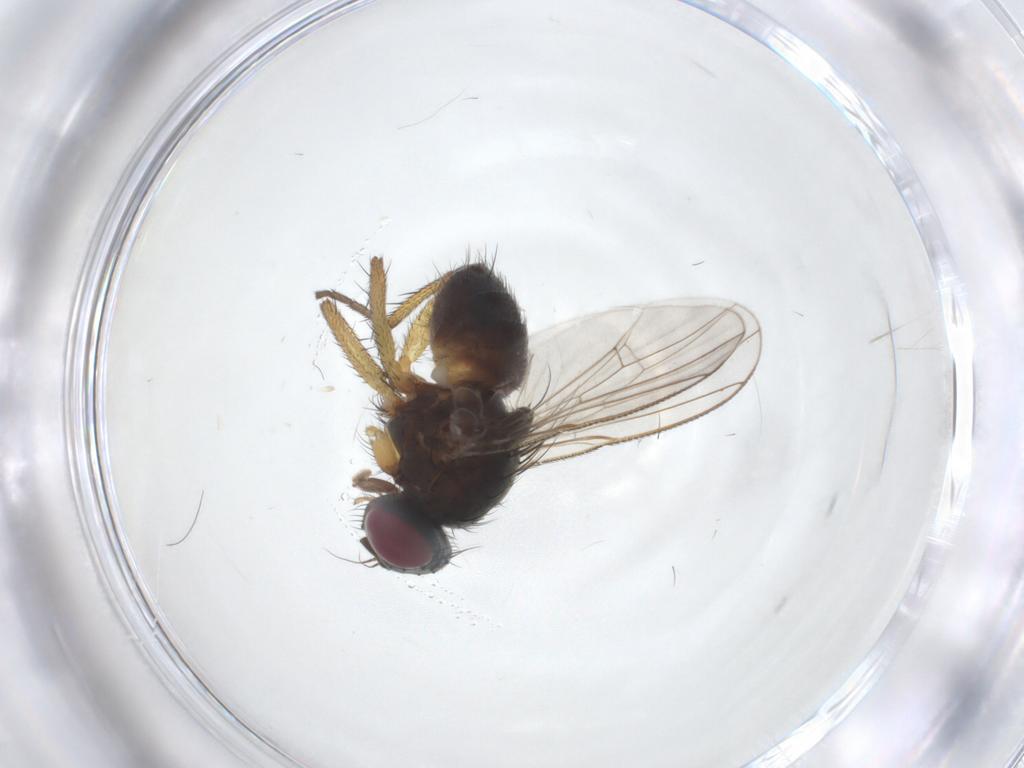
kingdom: Animalia
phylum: Arthropoda
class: Insecta
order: Diptera
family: Muscidae
